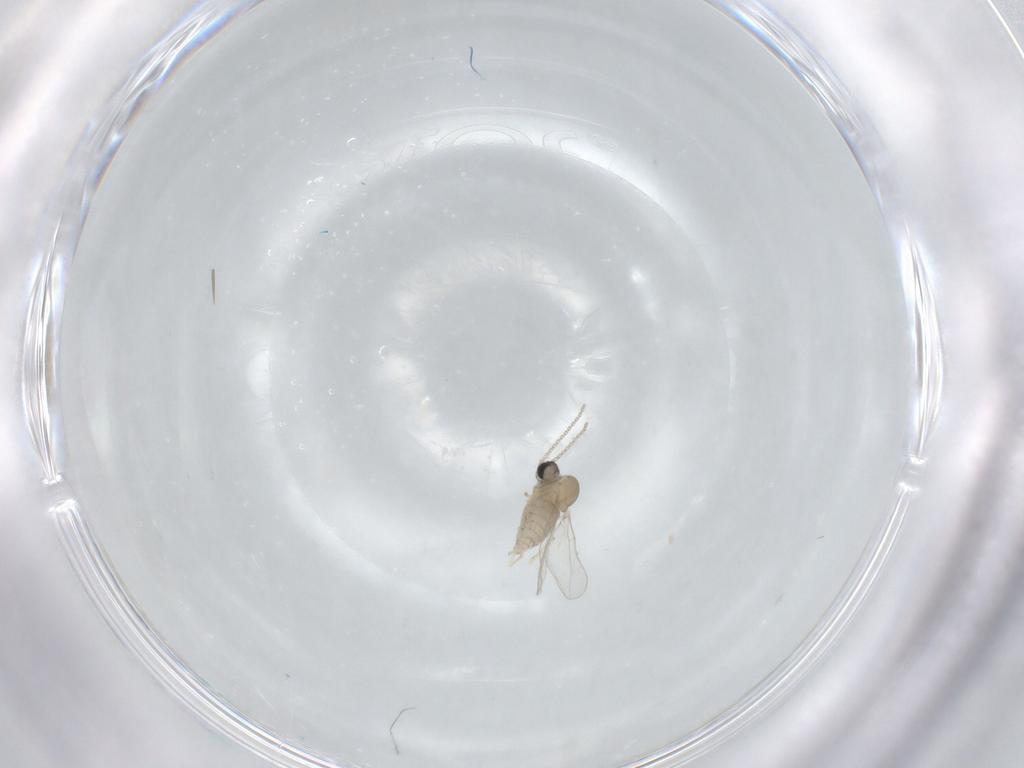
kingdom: Animalia
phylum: Arthropoda
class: Insecta
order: Diptera
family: Cecidomyiidae
